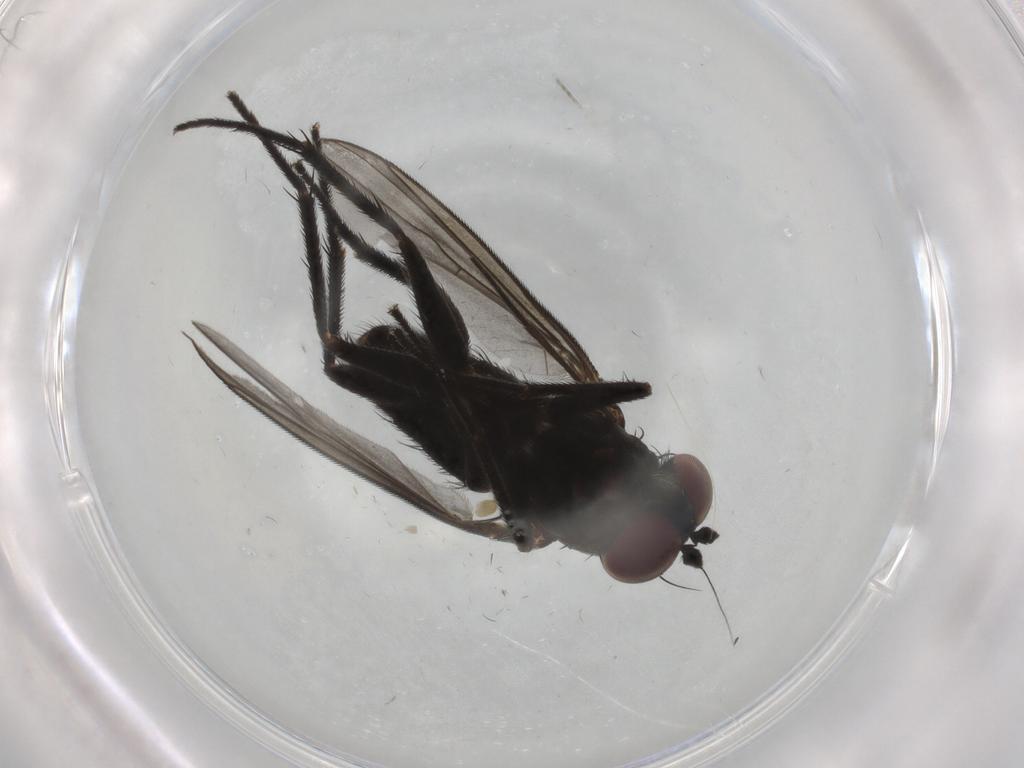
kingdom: Animalia
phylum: Arthropoda
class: Insecta
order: Diptera
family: Dolichopodidae
